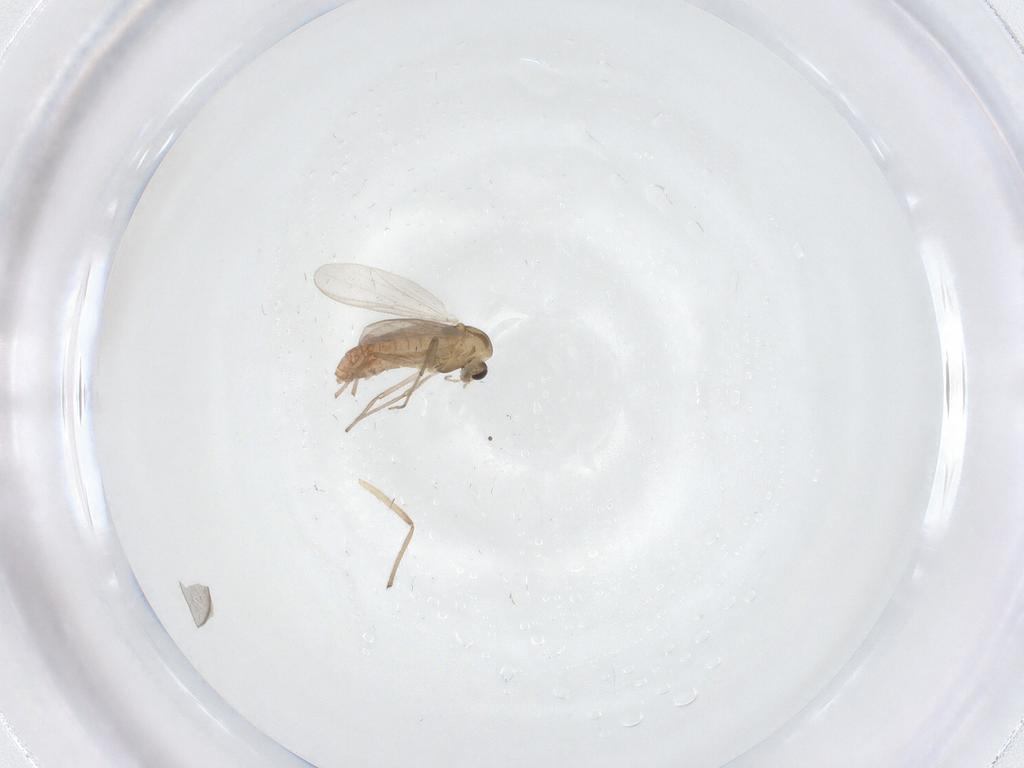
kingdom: Animalia
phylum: Arthropoda
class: Insecta
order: Diptera
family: Chironomidae
